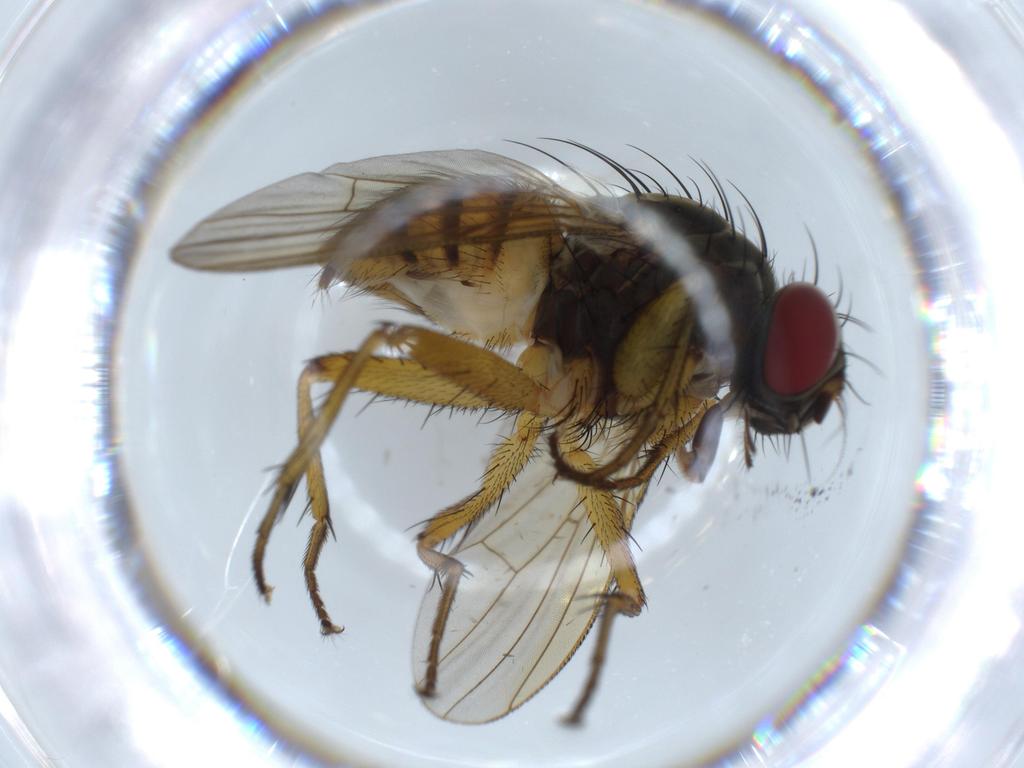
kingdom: Animalia
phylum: Arthropoda
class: Insecta
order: Diptera
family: Muscidae
